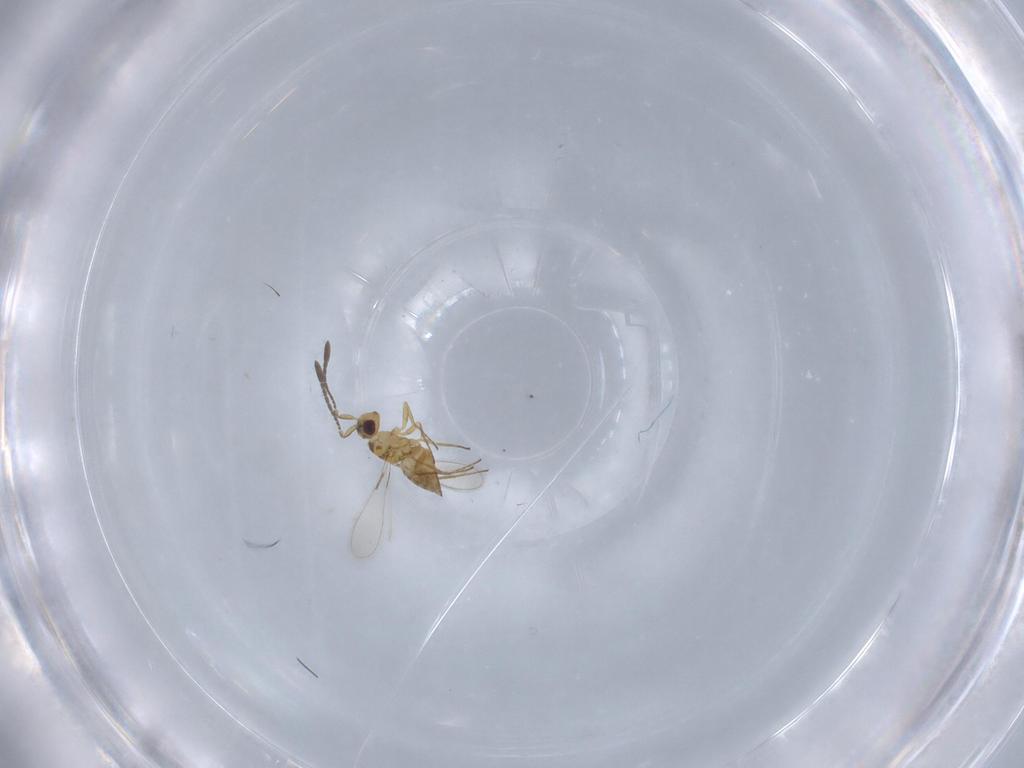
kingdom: Animalia
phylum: Arthropoda
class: Insecta
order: Hymenoptera
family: Mymaridae
